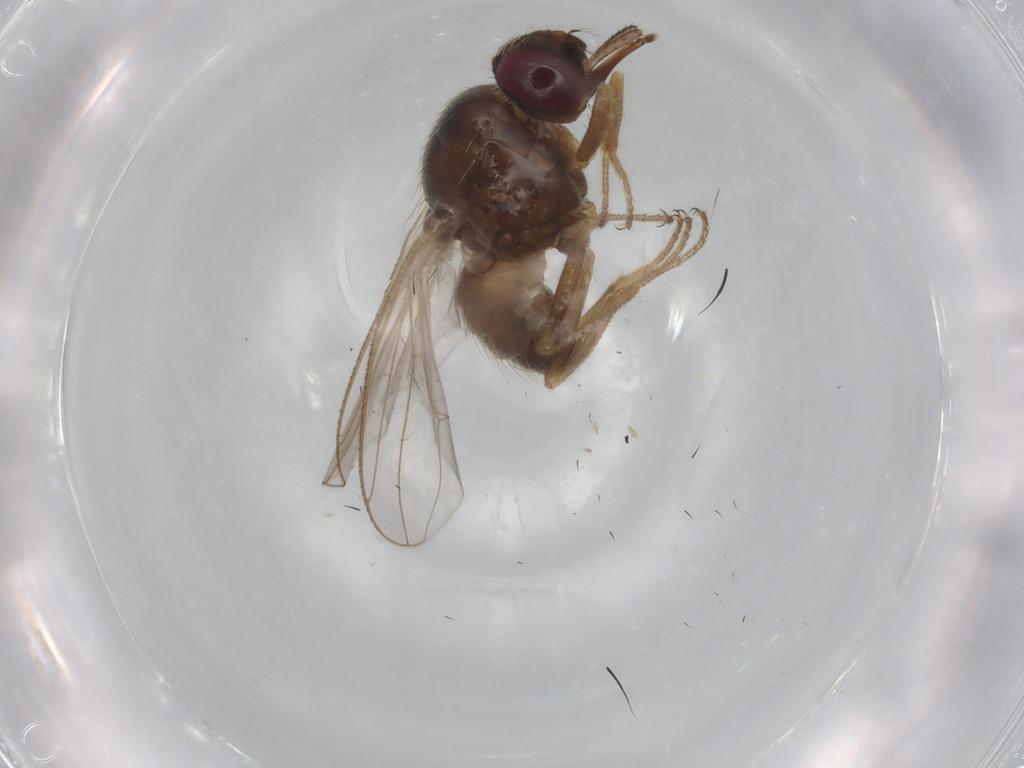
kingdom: Animalia
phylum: Arthropoda
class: Insecta
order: Diptera
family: Muscidae
